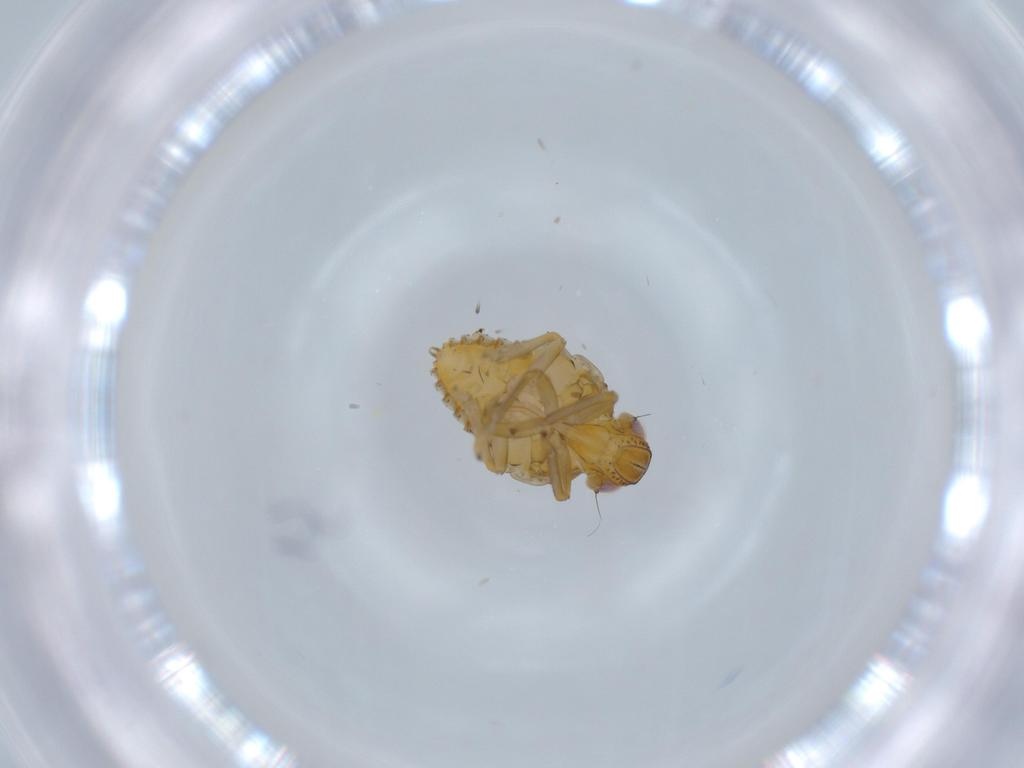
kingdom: Animalia
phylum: Arthropoda
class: Insecta
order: Hemiptera
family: Issidae
